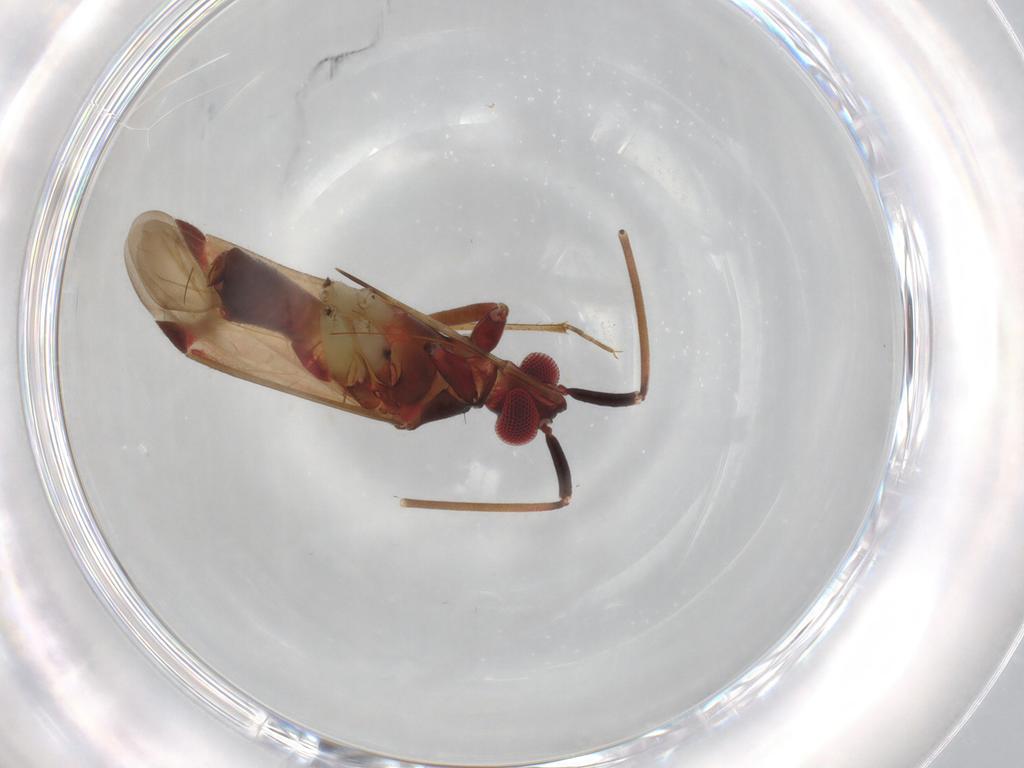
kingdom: Animalia
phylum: Arthropoda
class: Insecta
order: Hemiptera
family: Miridae
